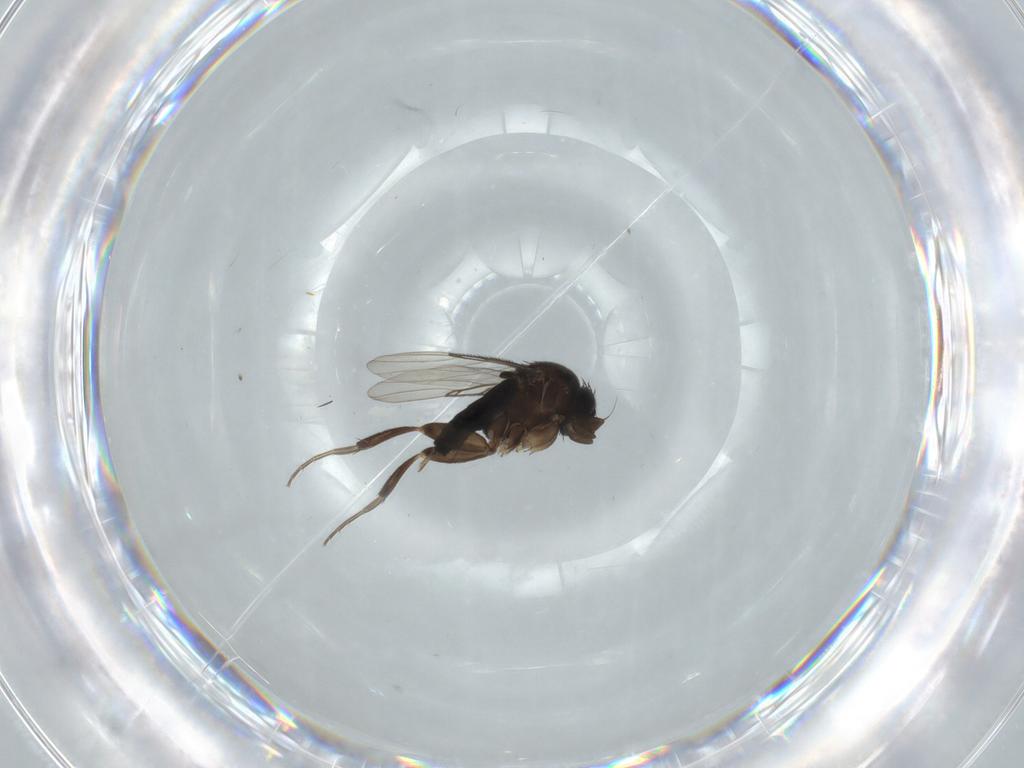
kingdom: Animalia
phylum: Arthropoda
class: Insecta
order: Diptera
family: Phoridae
